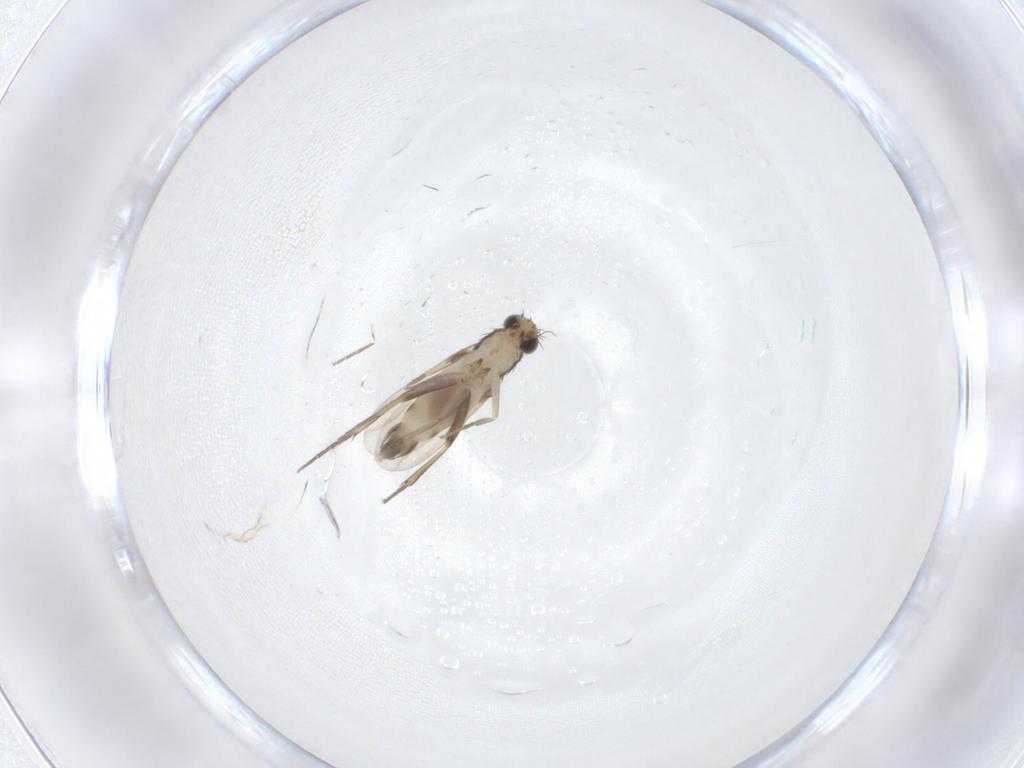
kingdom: Animalia
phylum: Arthropoda
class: Insecta
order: Diptera
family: Phoridae
